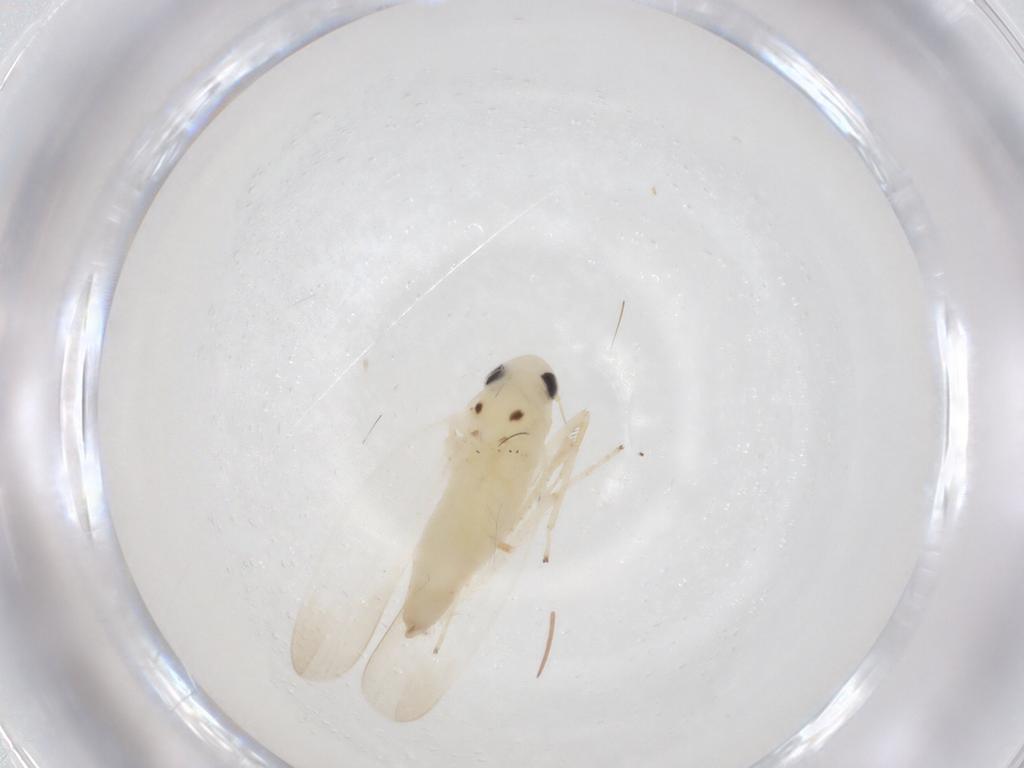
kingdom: Animalia
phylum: Arthropoda
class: Insecta
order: Hemiptera
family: Cicadellidae
